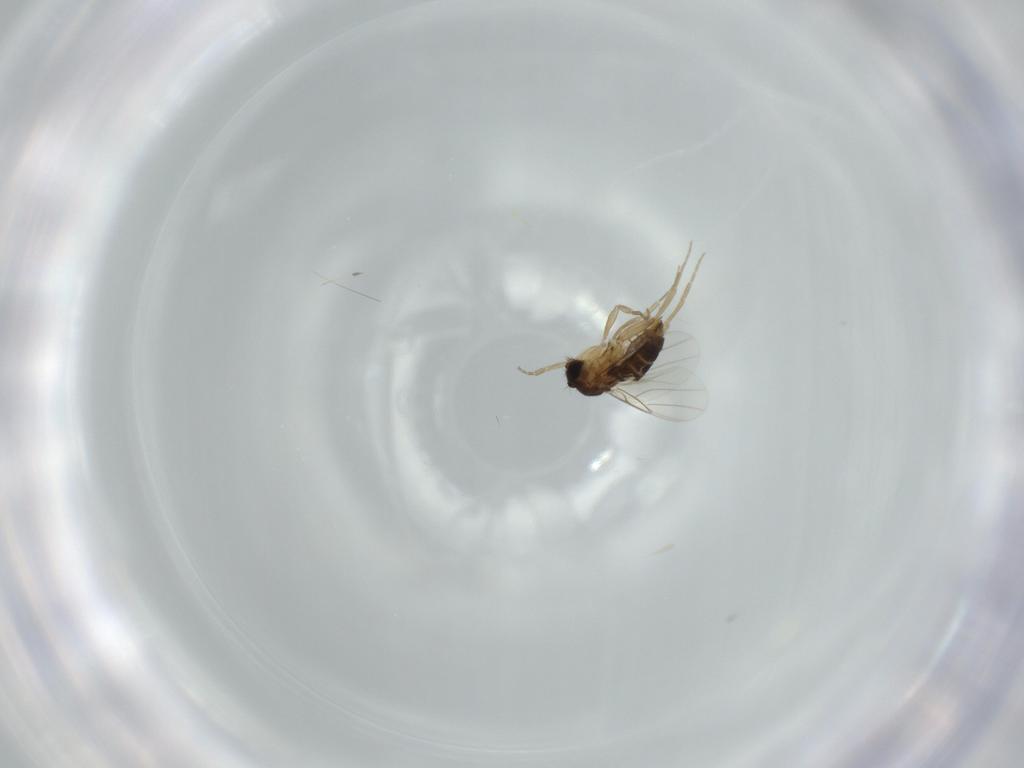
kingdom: Animalia
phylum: Arthropoda
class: Insecta
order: Diptera
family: Phoridae
